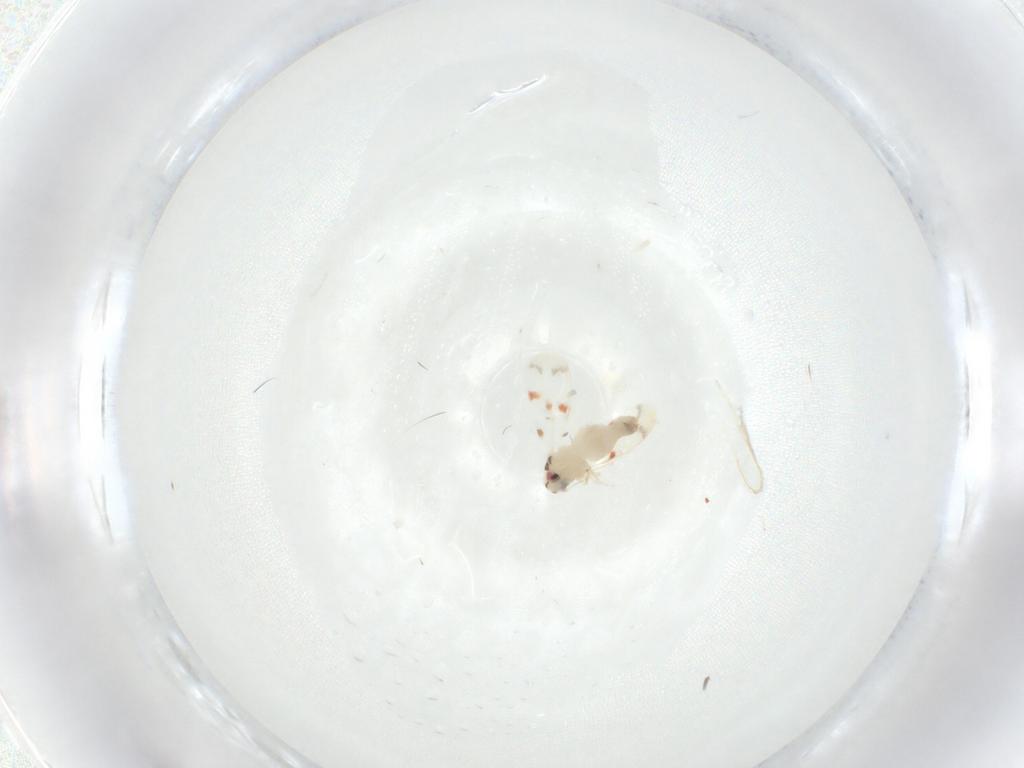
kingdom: Animalia
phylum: Arthropoda
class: Insecta
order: Hemiptera
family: Aleyrodidae
